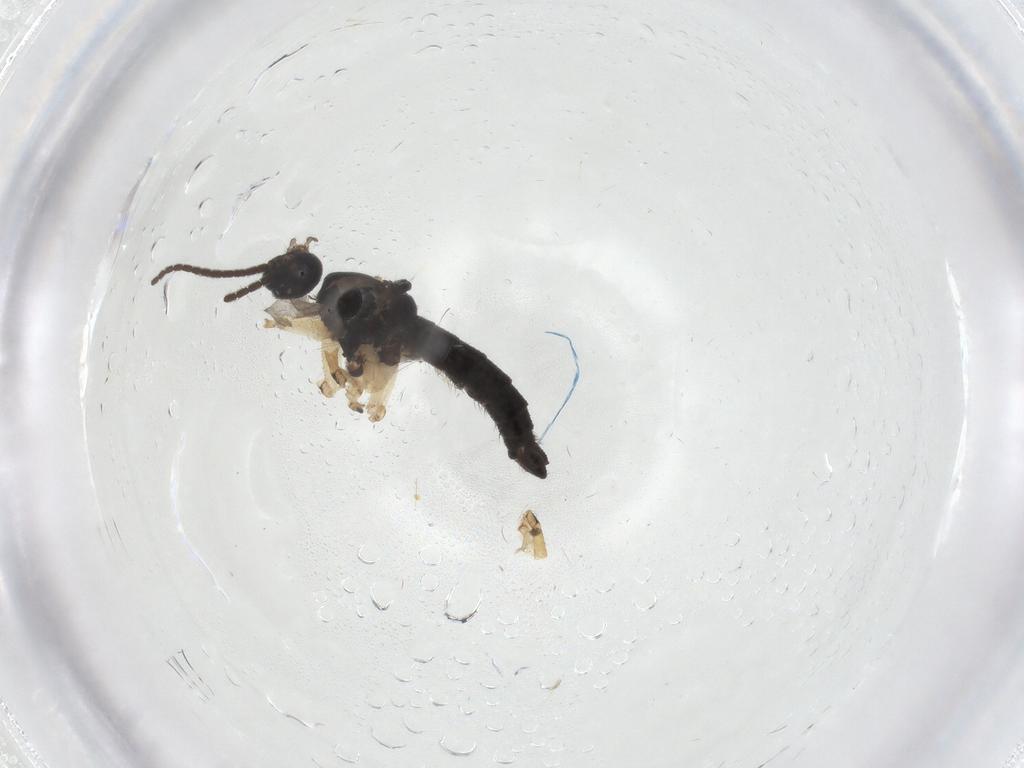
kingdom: Animalia
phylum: Arthropoda
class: Insecta
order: Diptera
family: Sciaridae
